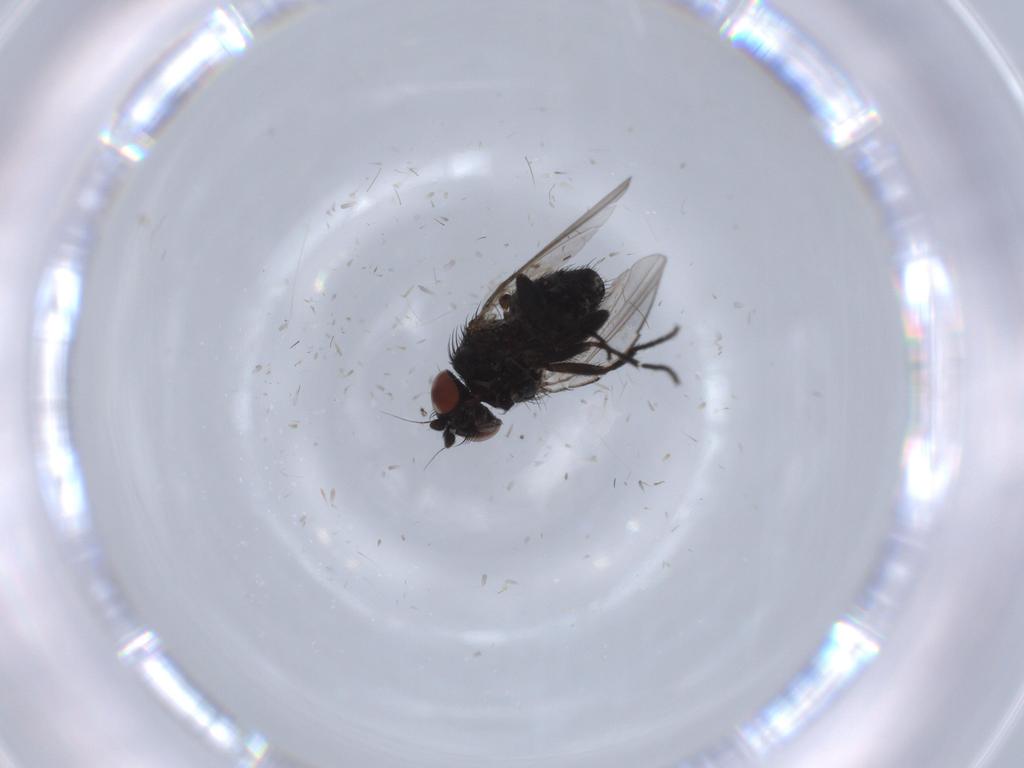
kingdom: Animalia
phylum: Arthropoda
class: Insecta
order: Diptera
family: Milichiidae
